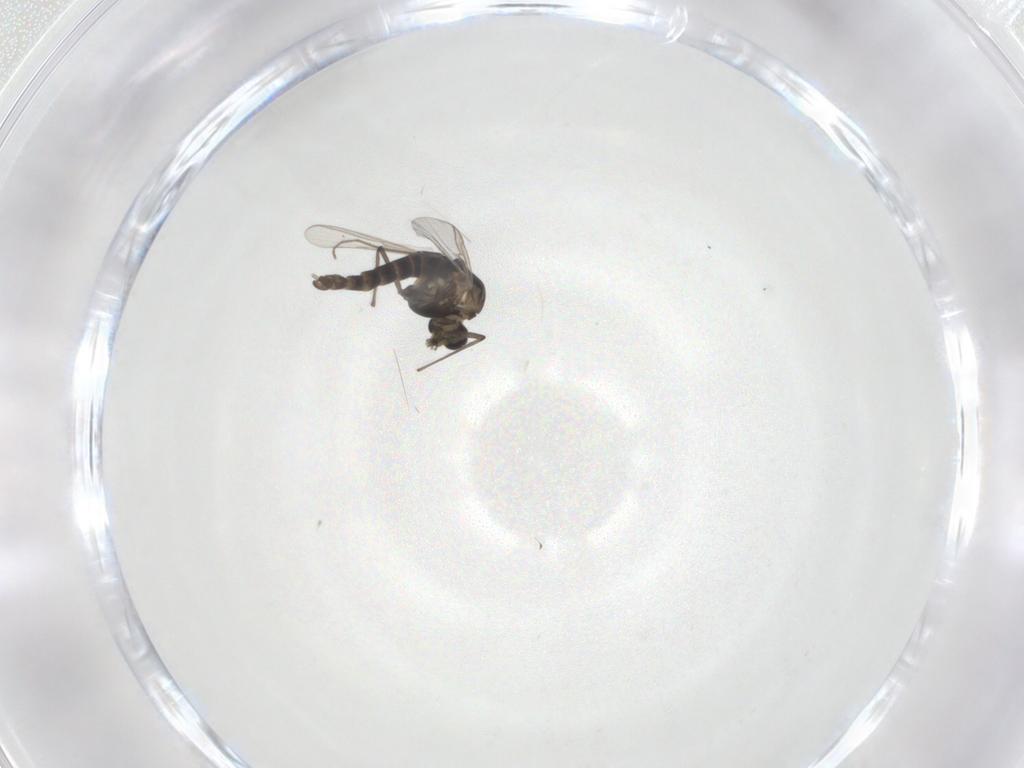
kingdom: Animalia
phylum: Arthropoda
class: Insecta
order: Diptera
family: Chironomidae
